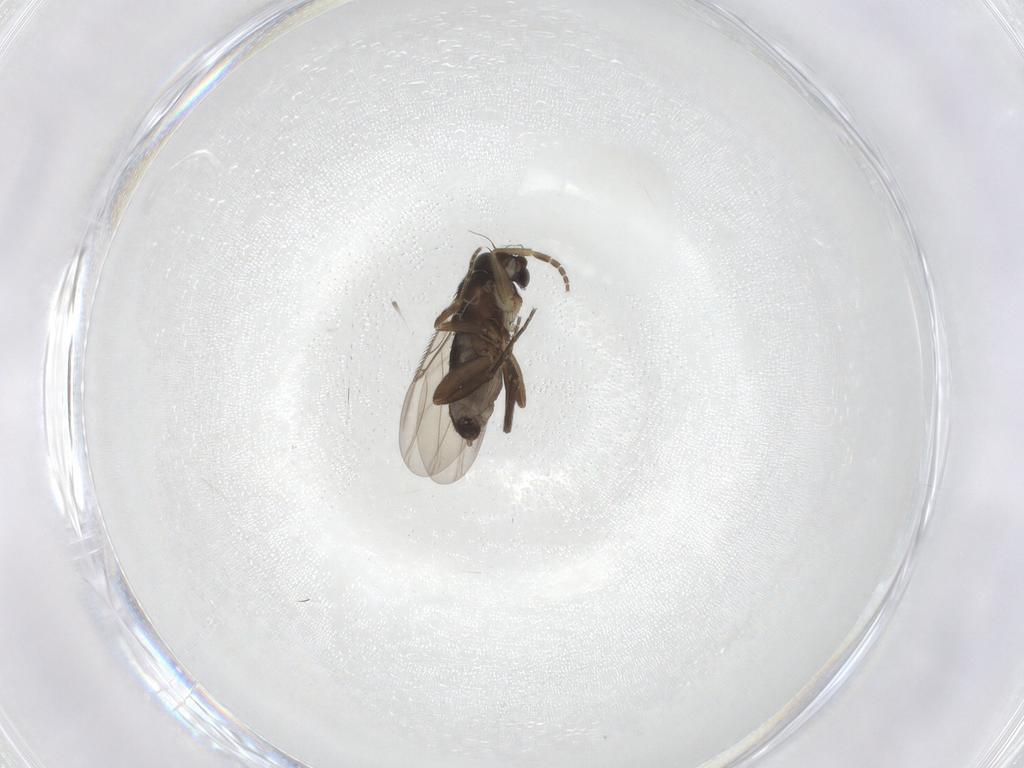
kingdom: Animalia
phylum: Arthropoda
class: Insecta
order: Diptera
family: Phoridae
